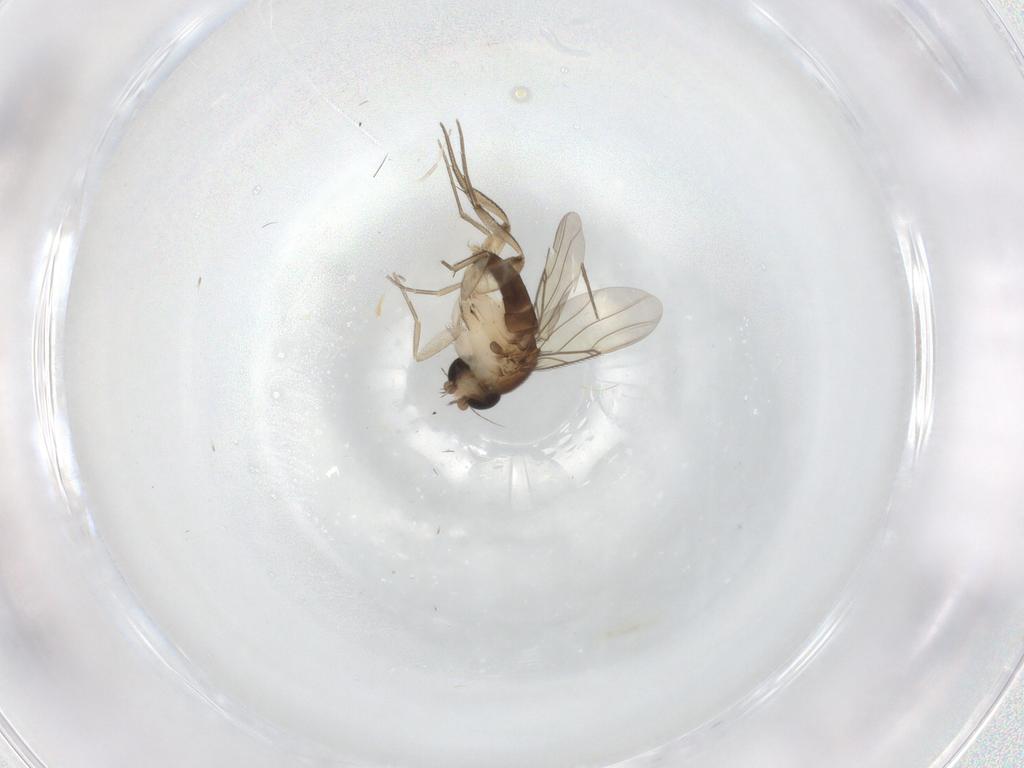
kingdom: Animalia
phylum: Arthropoda
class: Insecta
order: Diptera
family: Phoridae
